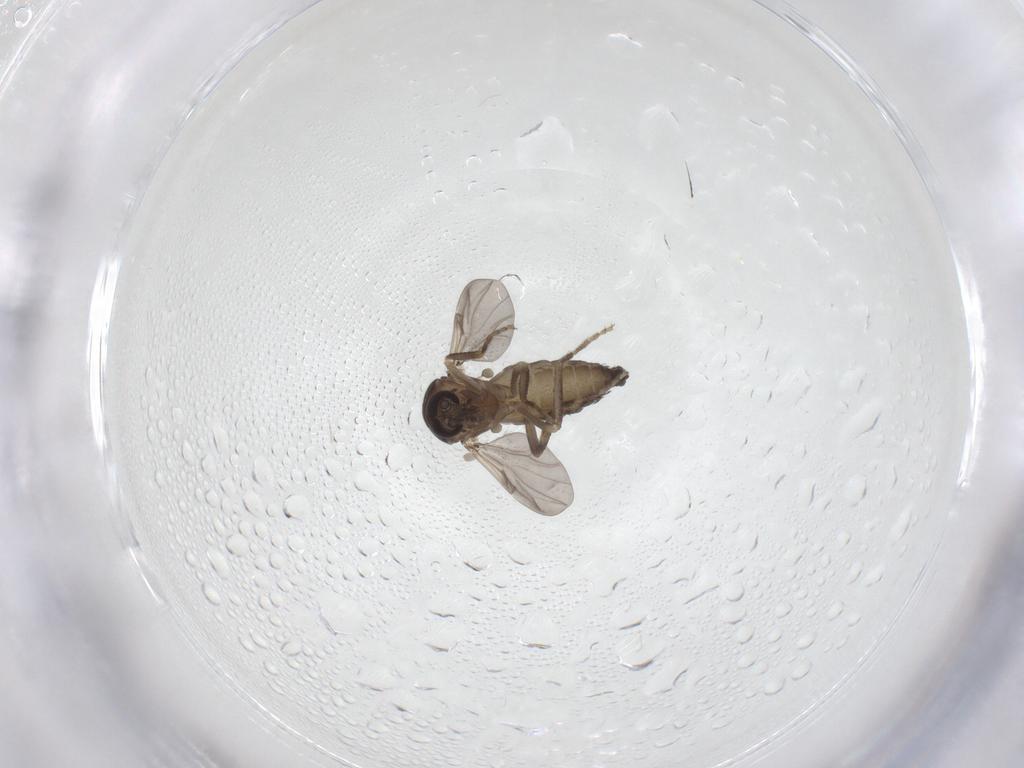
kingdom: Animalia
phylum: Arthropoda
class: Insecta
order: Diptera
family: Ceratopogonidae
